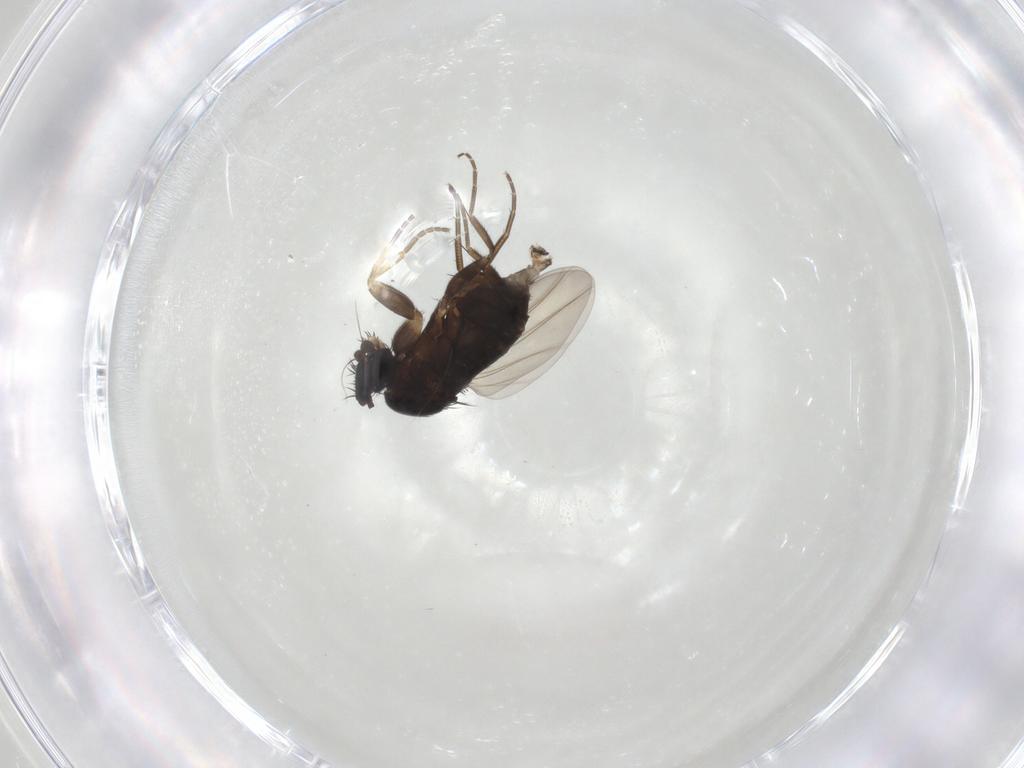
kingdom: Animalia
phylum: Arthropoda
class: Insecta
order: Diptera
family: Phoridae
